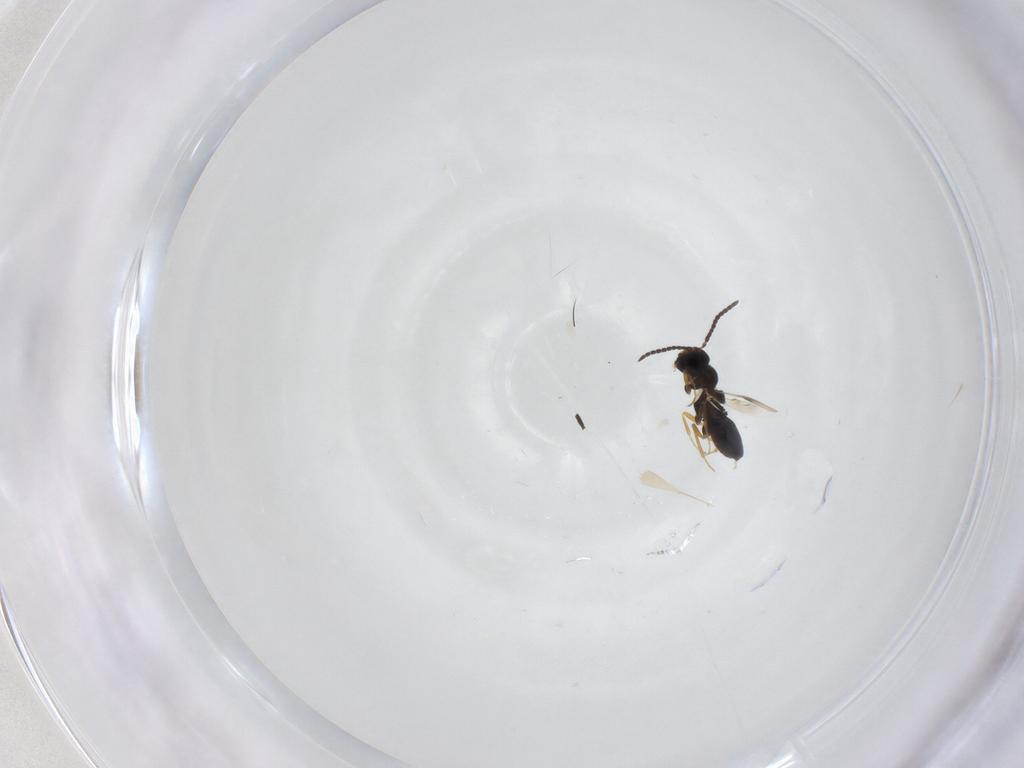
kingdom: Animalia
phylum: Arthropoda
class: Insecta
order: Hymenoptera
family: Scelionidae
